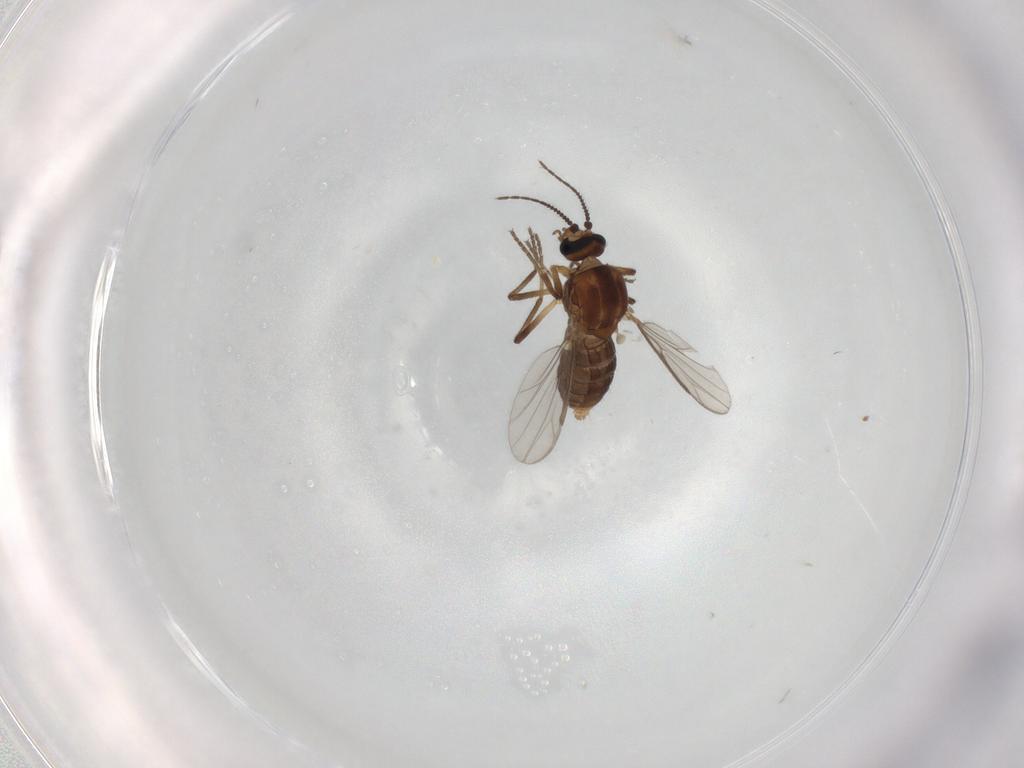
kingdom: Animalia
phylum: Arthropoda
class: Insecta
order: Diptera
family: Ceratopogonidae
